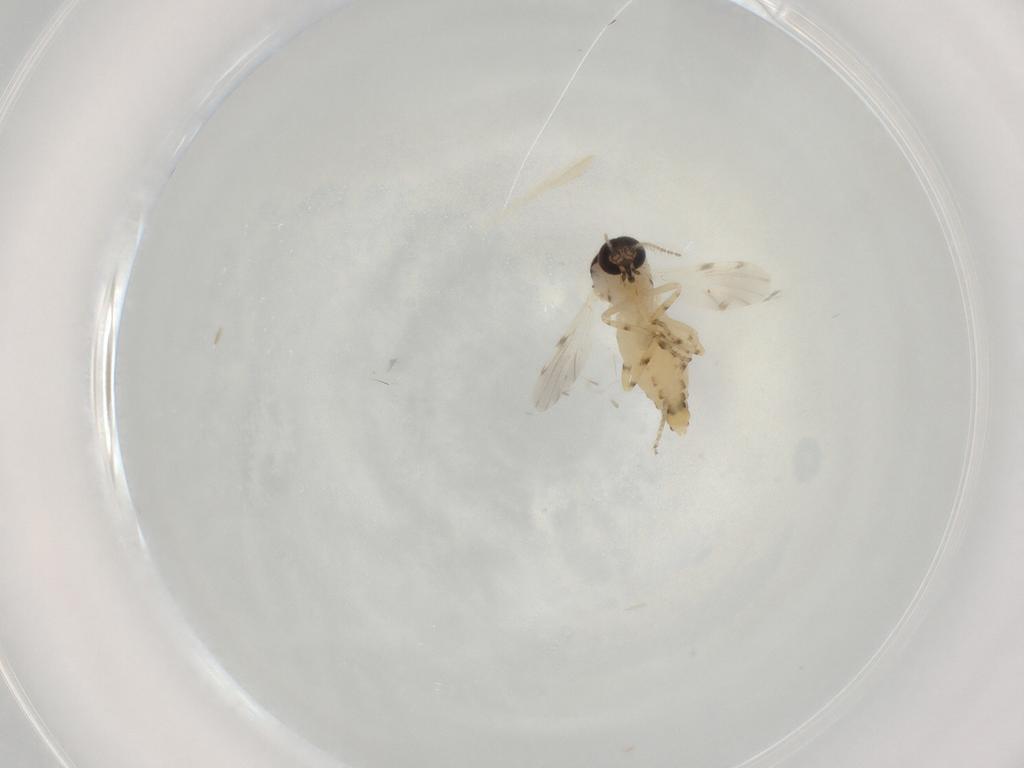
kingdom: Animalia
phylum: Arthropoda
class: Insecta
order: Diptera
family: Ceratopogonidae
